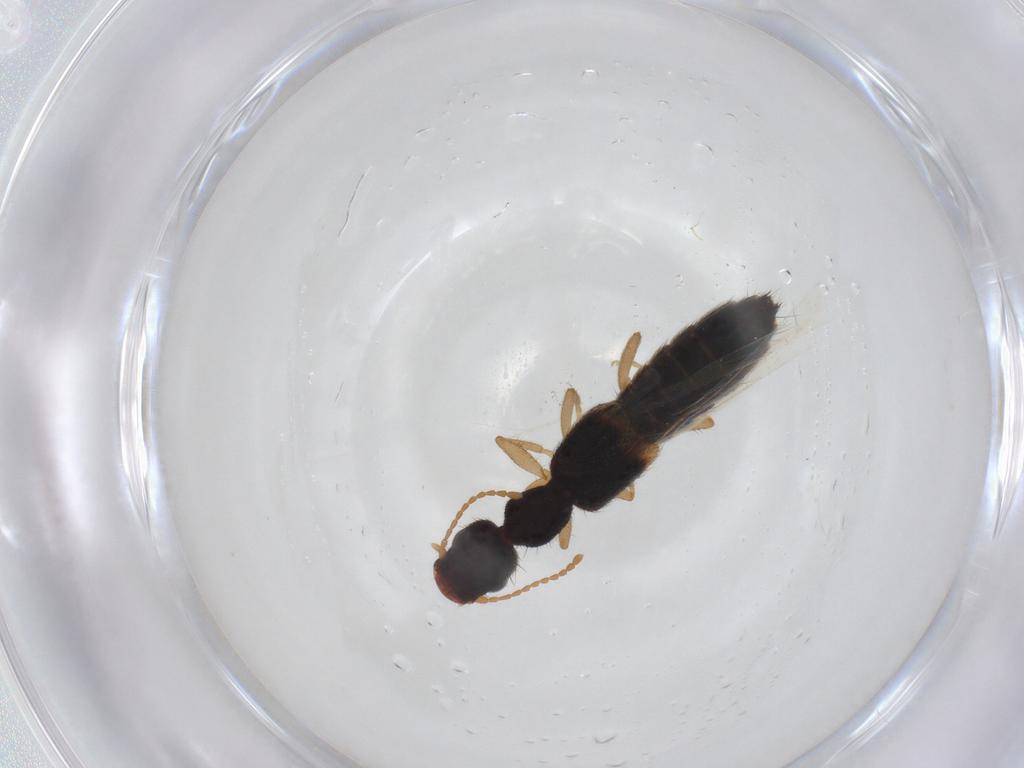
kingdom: Animalia
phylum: Arthropoda
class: Insecta
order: Coleoptera
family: Staphylinidae
